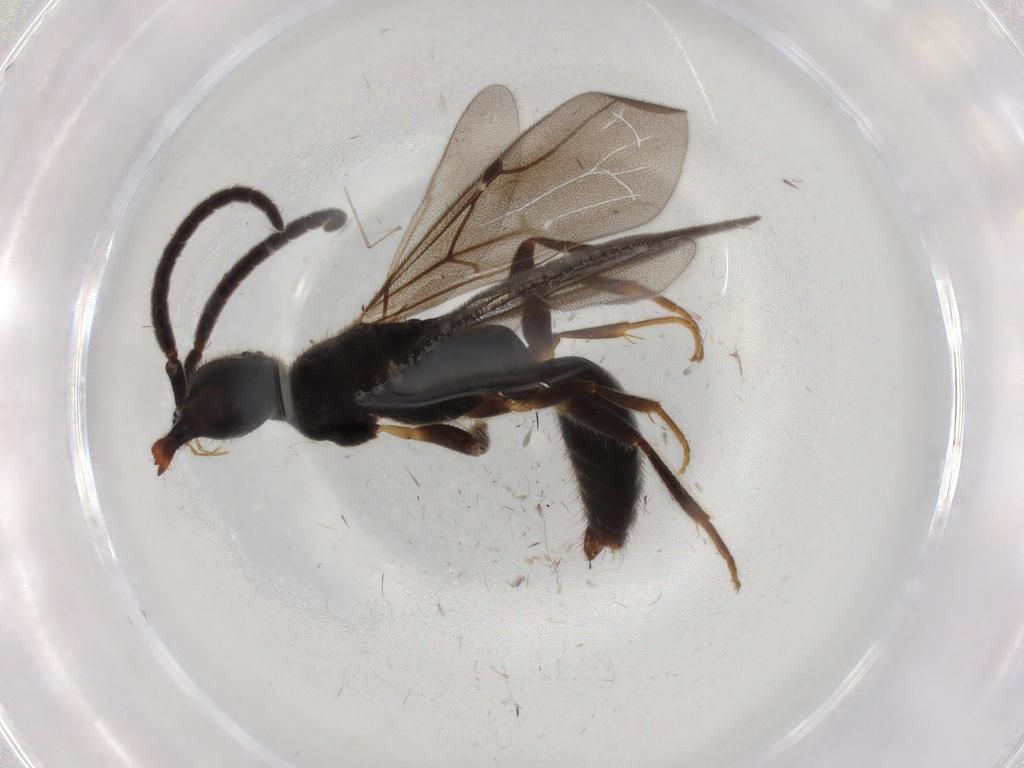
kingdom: Animalia
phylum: Arthropoda
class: Insecta
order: Hymenoptera
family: Bethylidae
